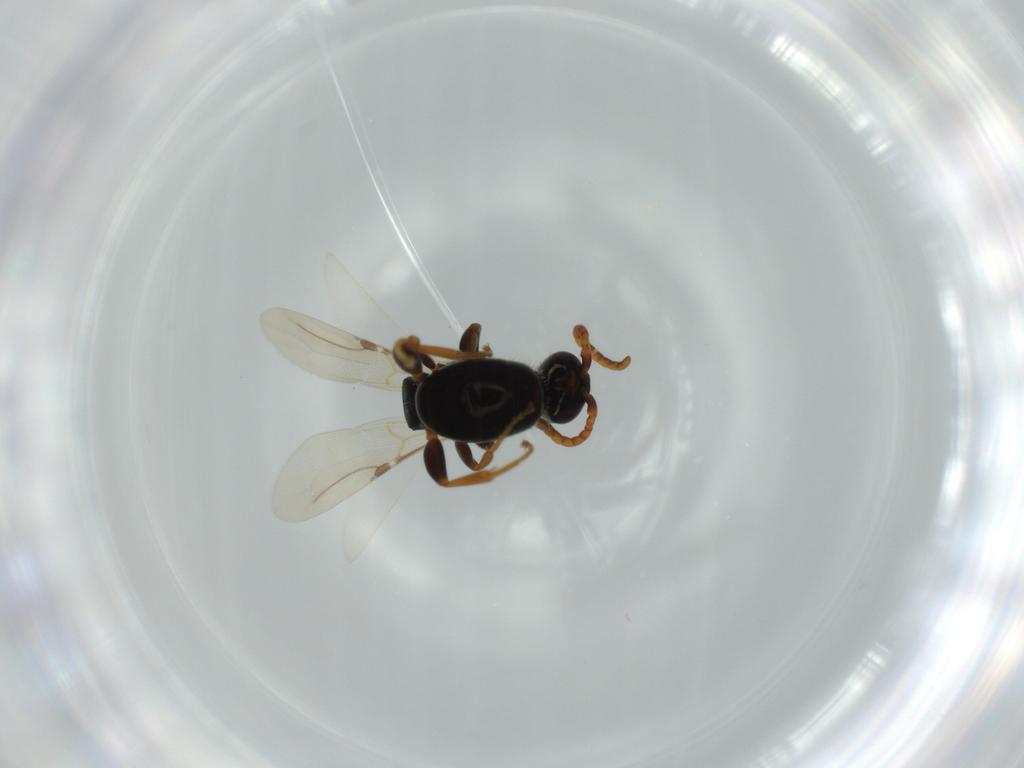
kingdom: Animalia
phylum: Arthropoda
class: Insecta
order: Hymenoptera
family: Bethylidae
